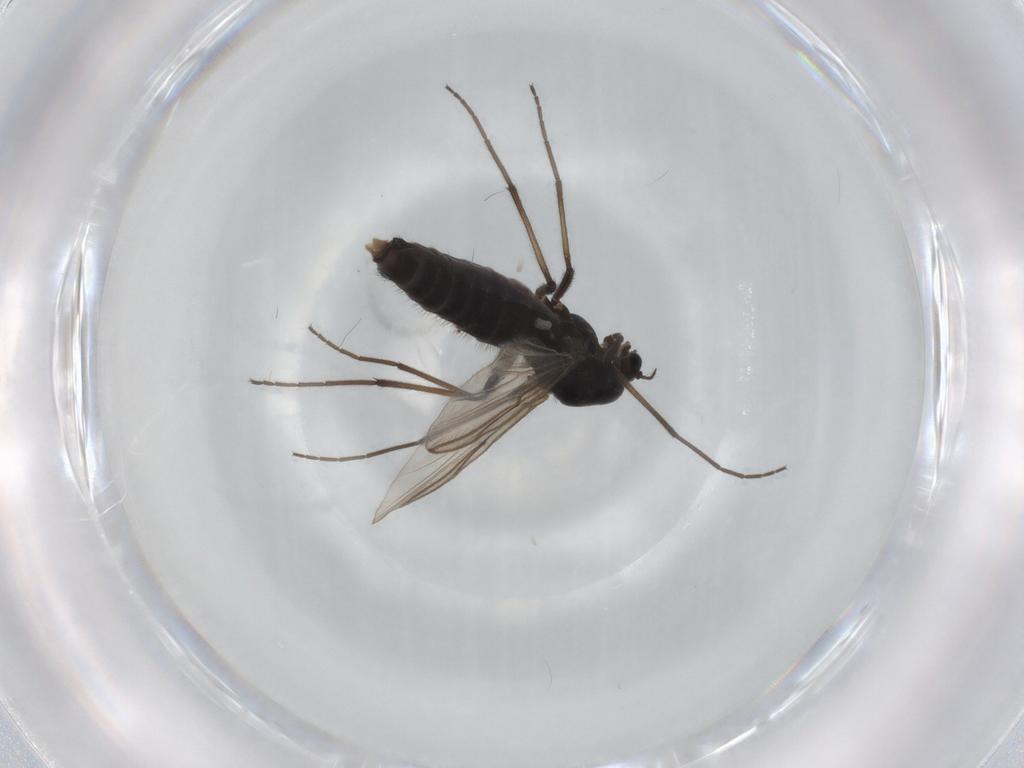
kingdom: Animalia
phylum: Arthropoda
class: Insecta
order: Diptera
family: Chironomidae
